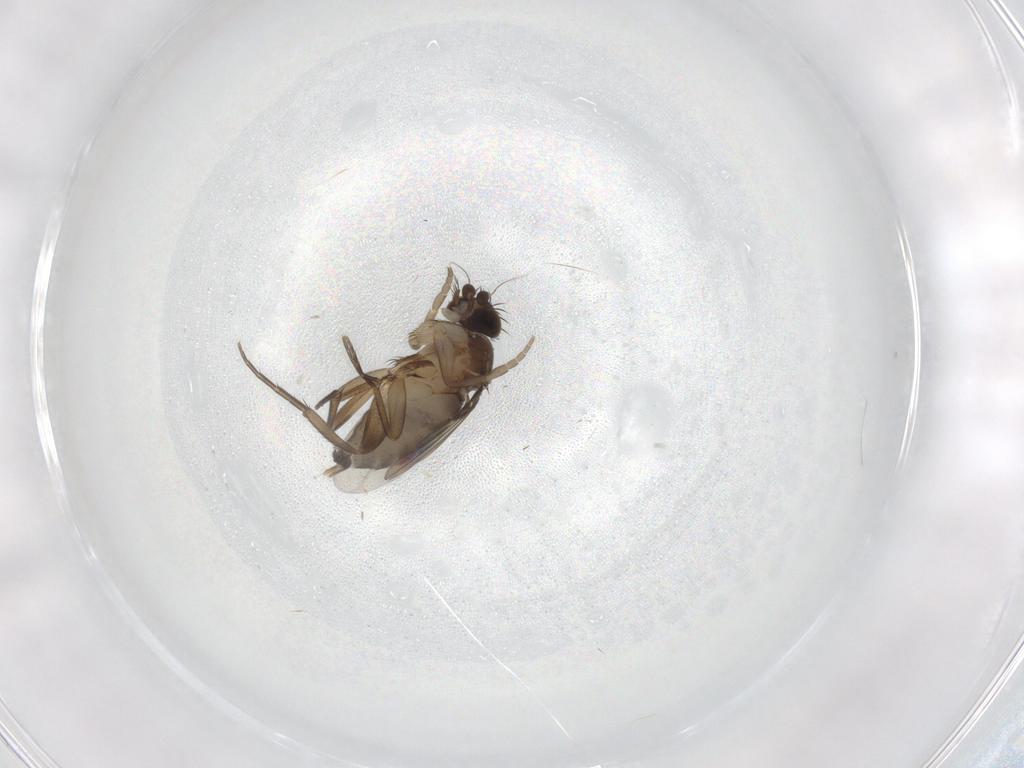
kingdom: Animalia
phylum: Arthropoda
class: Insecta
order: Diptera
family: Phoridae
